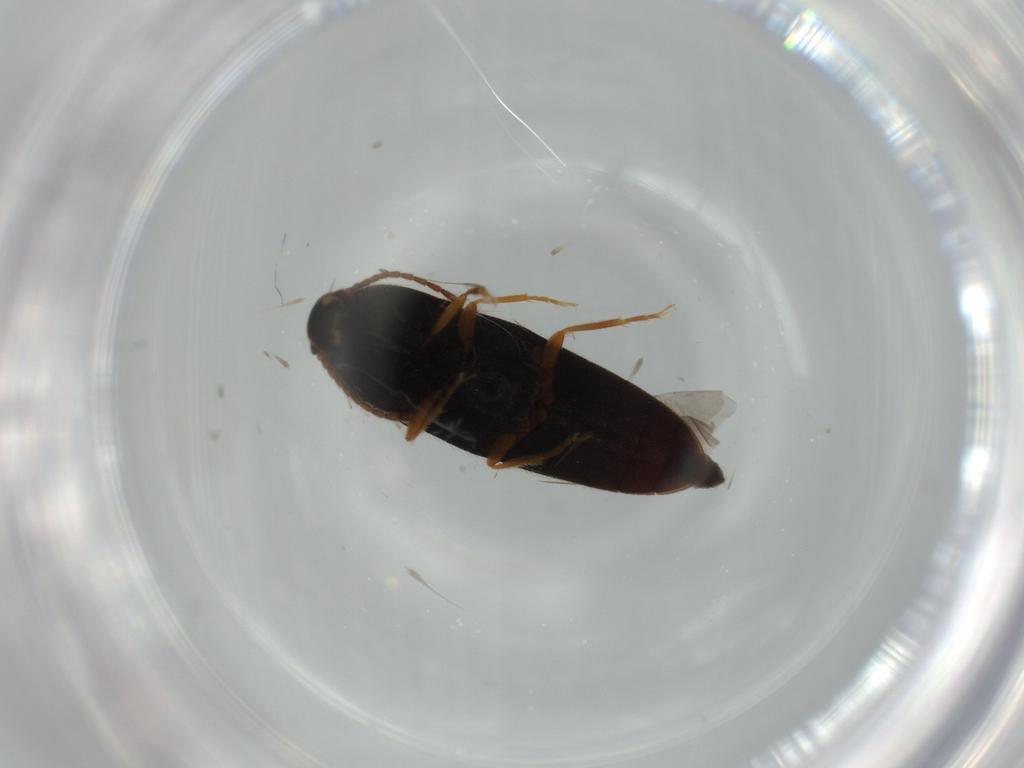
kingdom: Animalia
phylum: Arthropoda
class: Insecta
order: Coleoptera
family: Elateridae
